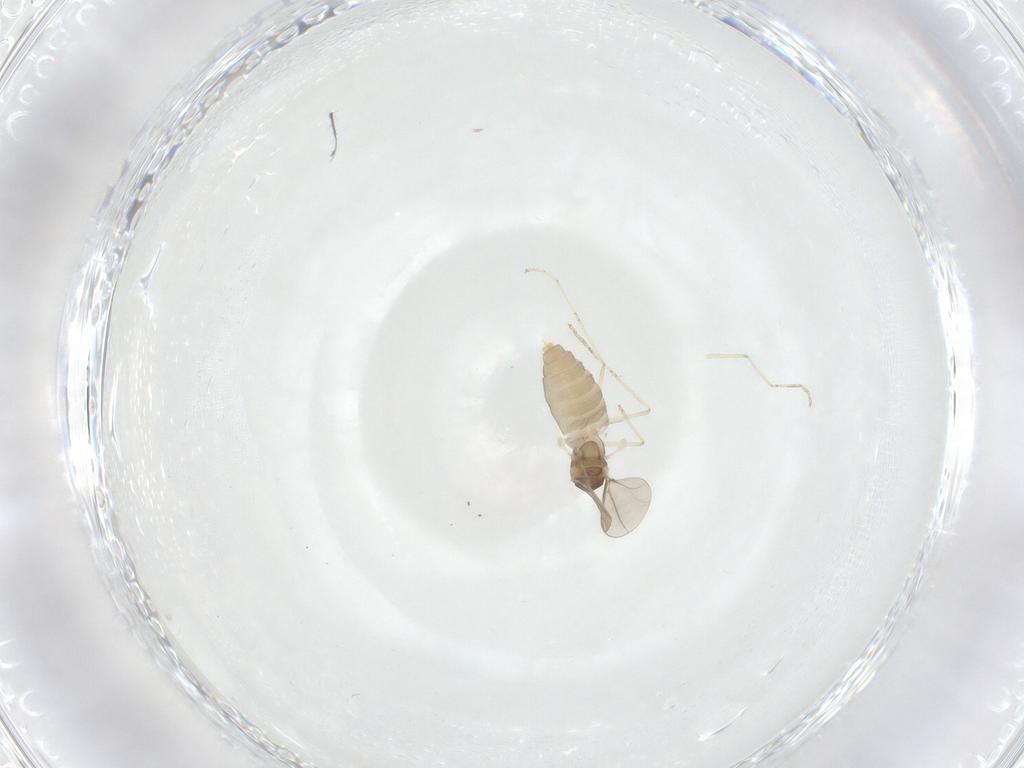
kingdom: Animalia
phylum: Arthropoda
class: Insecta
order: Diptera
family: Cecidomyiidae
